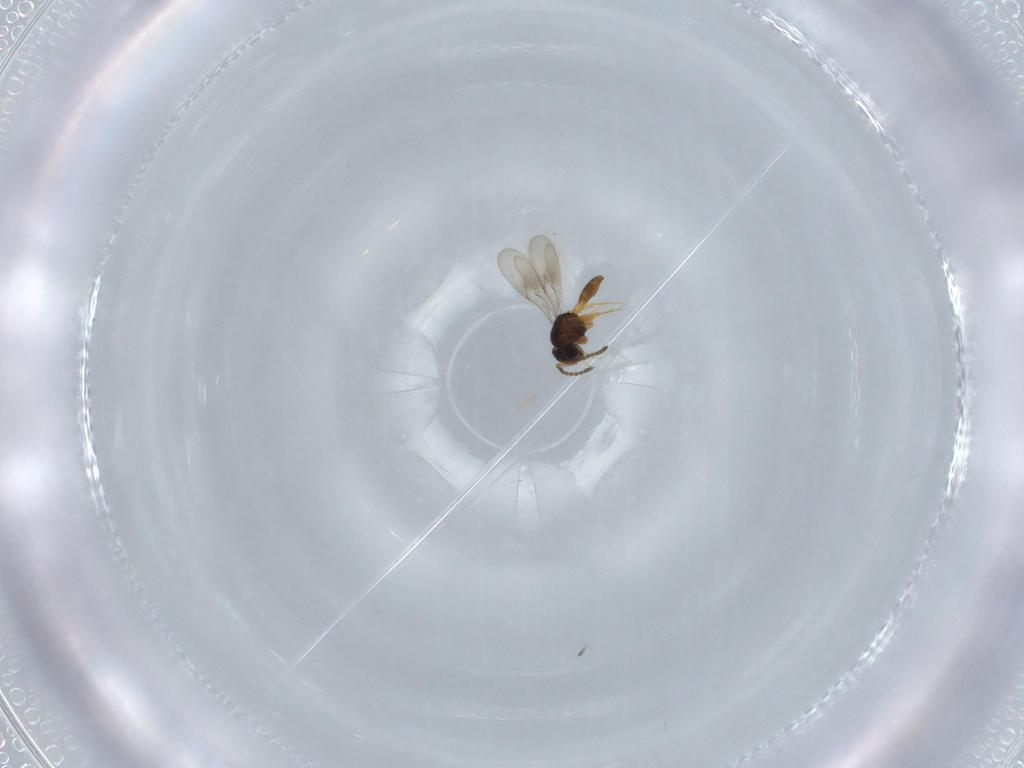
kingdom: Animalia
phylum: Arthropoda
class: Insecta
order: Hymenoptera
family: Scelionidae
